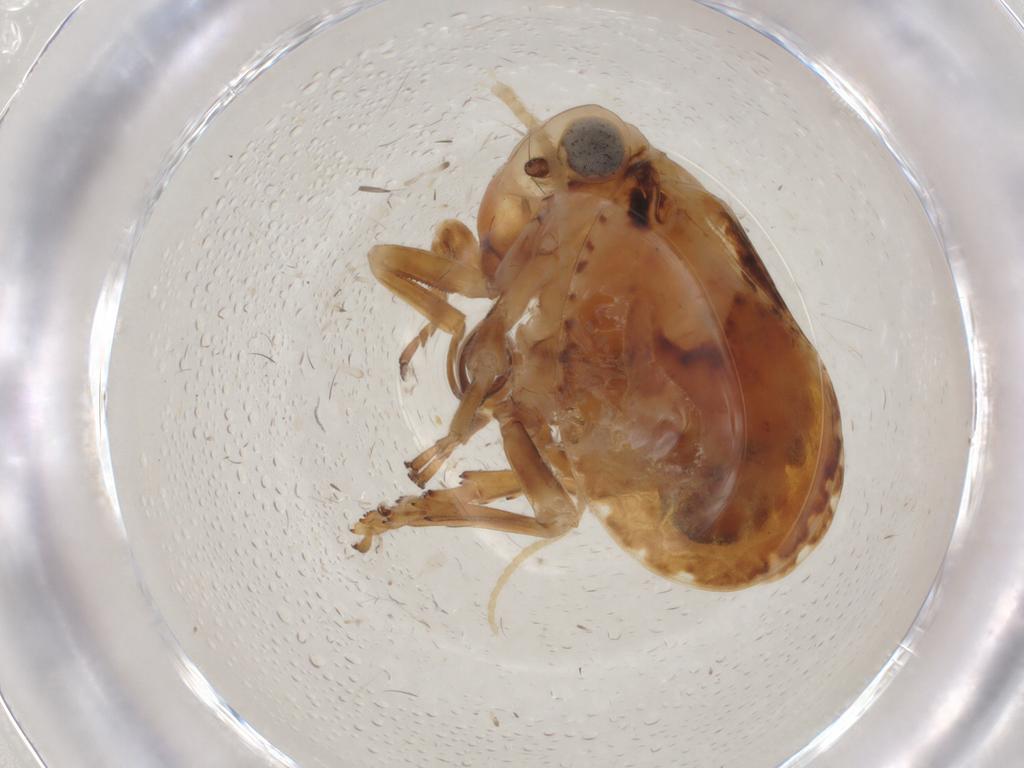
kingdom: Animalia
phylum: Arthropoda
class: Insecta
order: Hemiptera
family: Fulgoroidea_incertae_sedis
